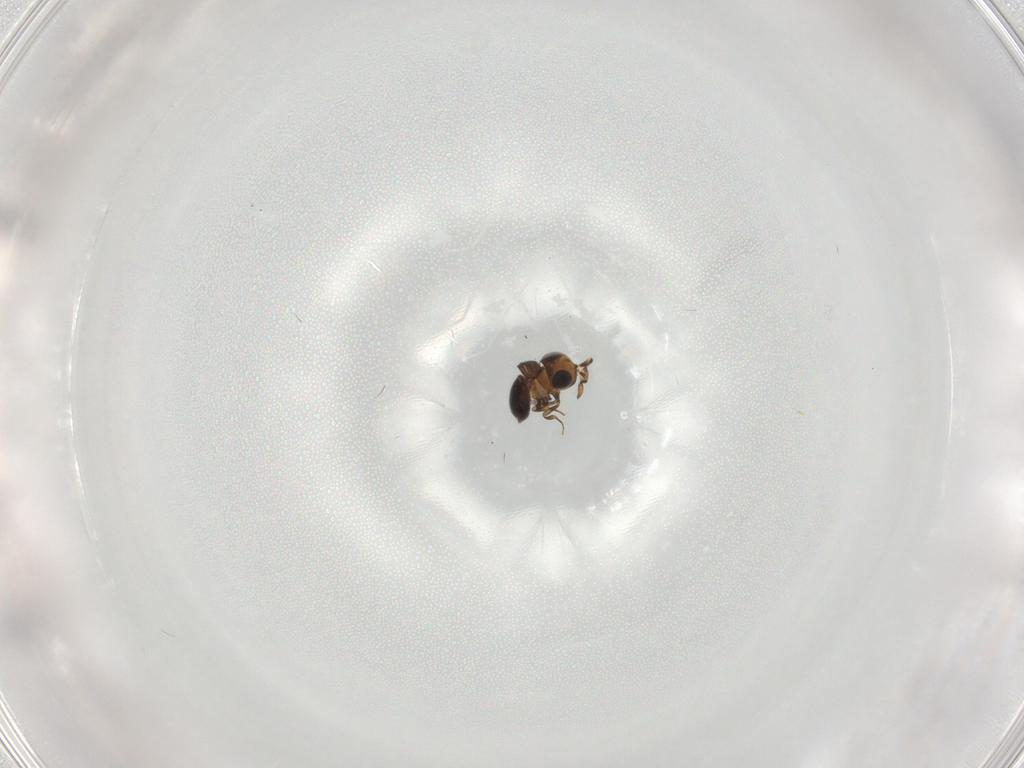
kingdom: Animalia
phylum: Arthropoda
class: Insecta
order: Hymenoptera
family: Scelionidae
